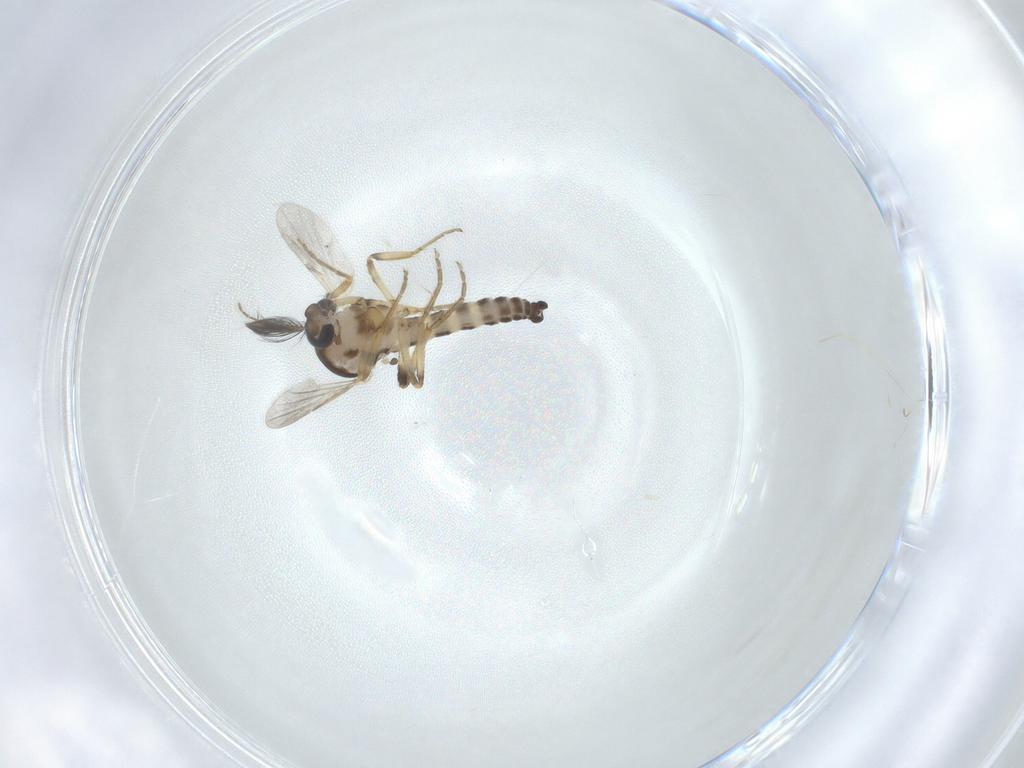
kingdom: Animalia
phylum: Arthropoda
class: Insecta
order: Diptera
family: Ceratopogonidae
